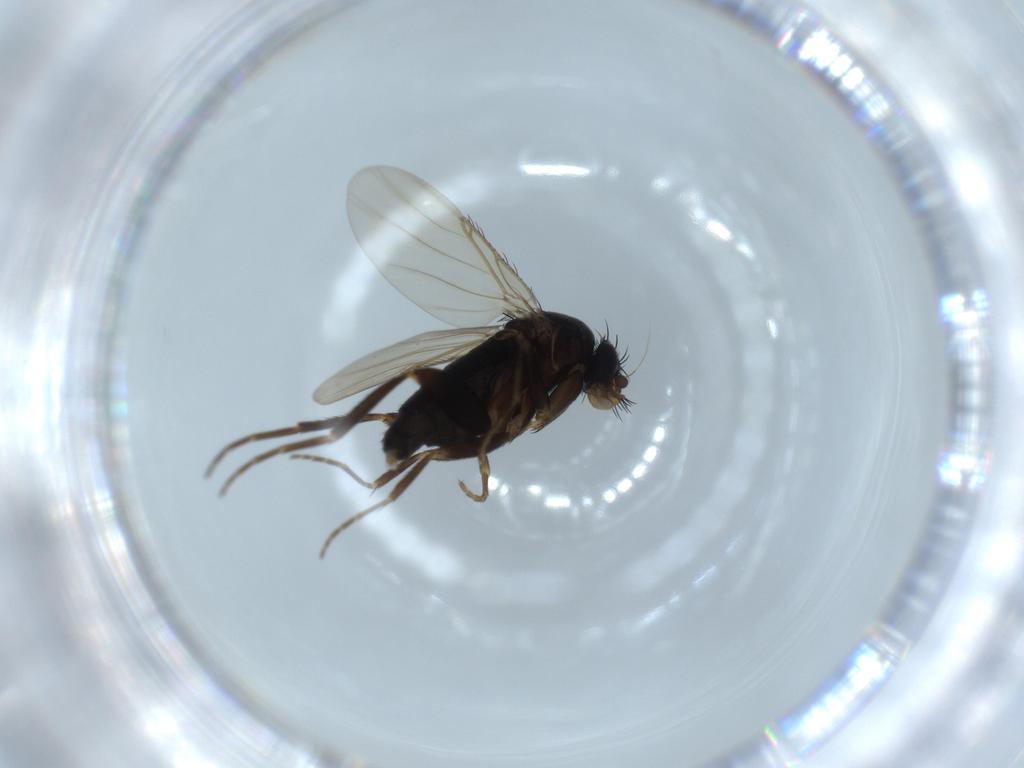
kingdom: Animalia
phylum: Arthropoda
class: Insecta
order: Diptera
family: Phoridae
